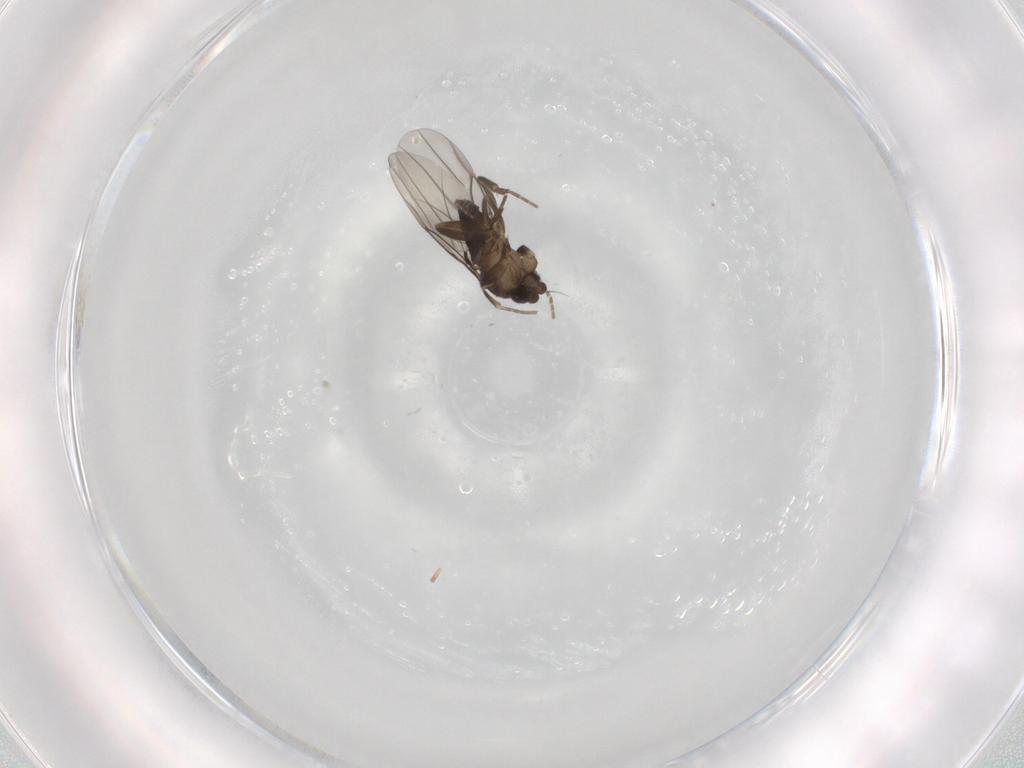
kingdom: Animalia
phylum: Arthropoda
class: Insecta
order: Diptera
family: Phoridae
